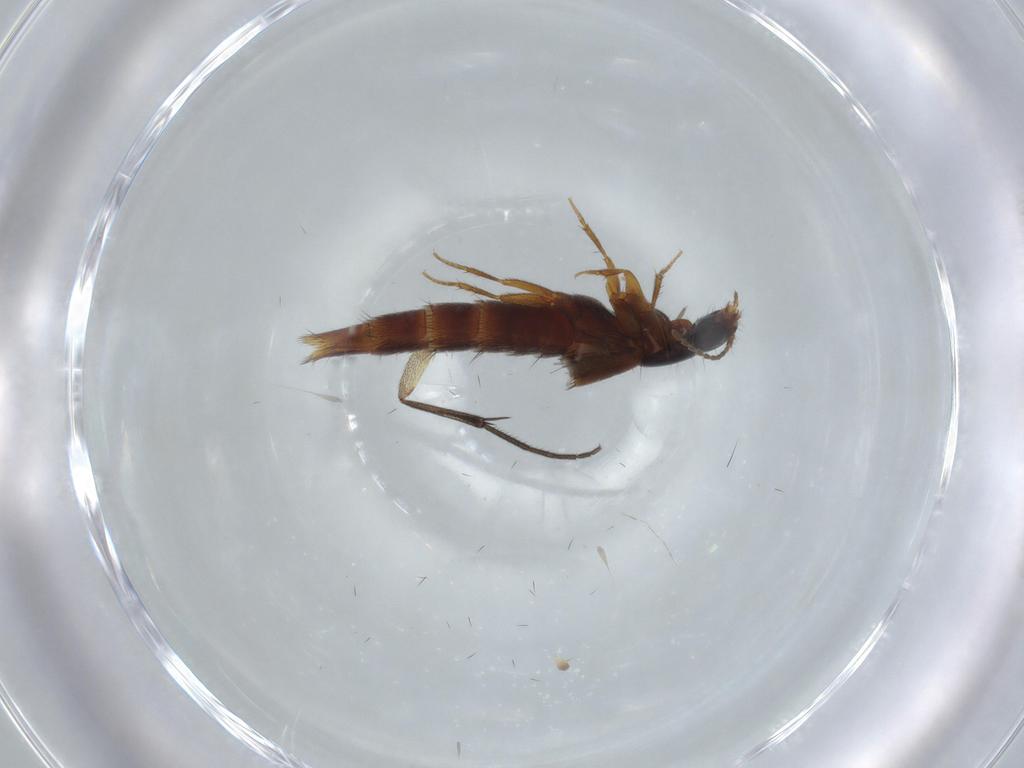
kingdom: Animalia
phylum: Arthropoda
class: Insecta
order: Coleoptera
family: Staphylinidae
